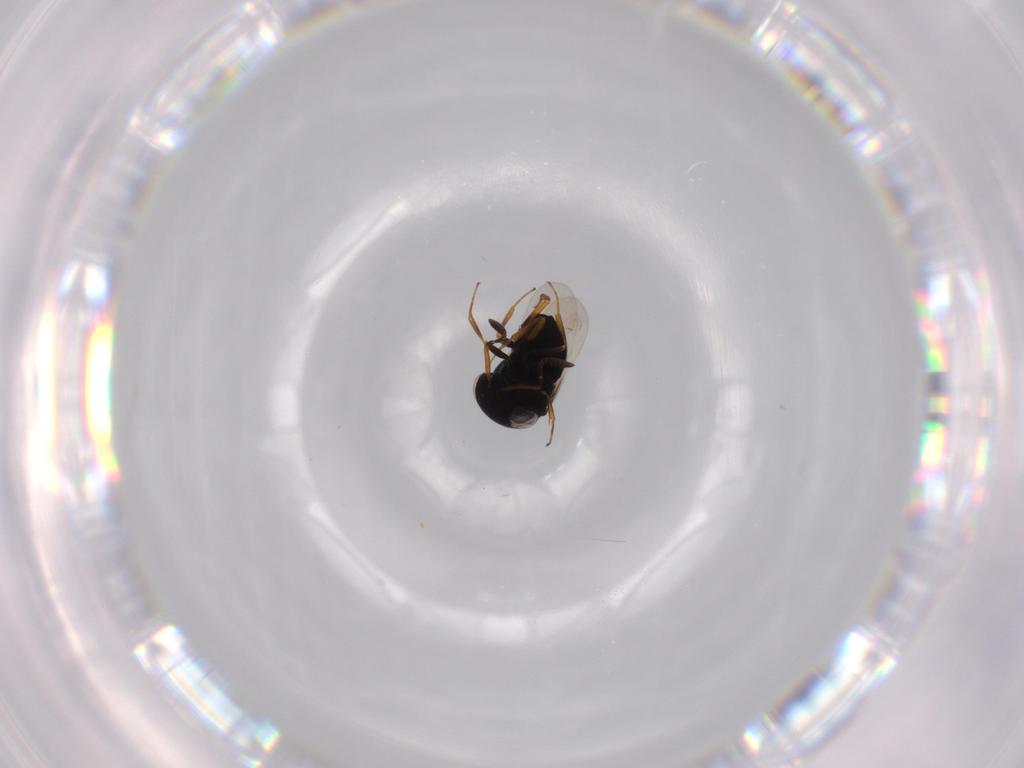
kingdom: Animalia
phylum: Arthropoda
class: Insecta
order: Hymenoptera
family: Scelionidae
